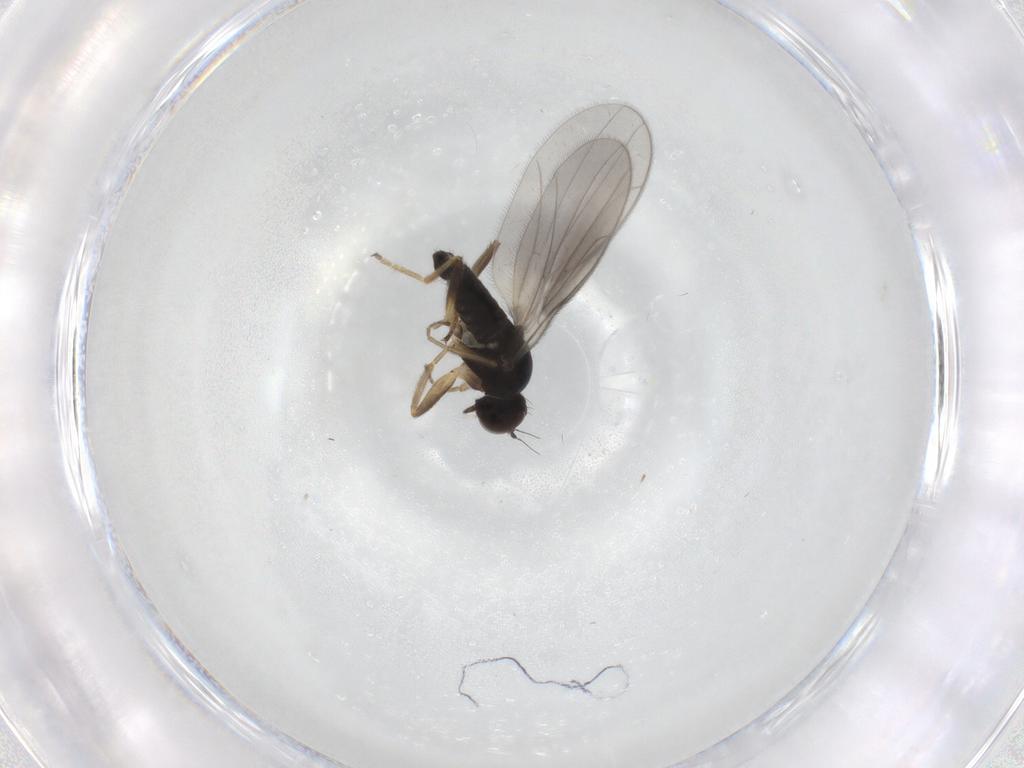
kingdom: Animalia
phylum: Arthropoda
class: Insecta
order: Diptera
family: Hybotidae
